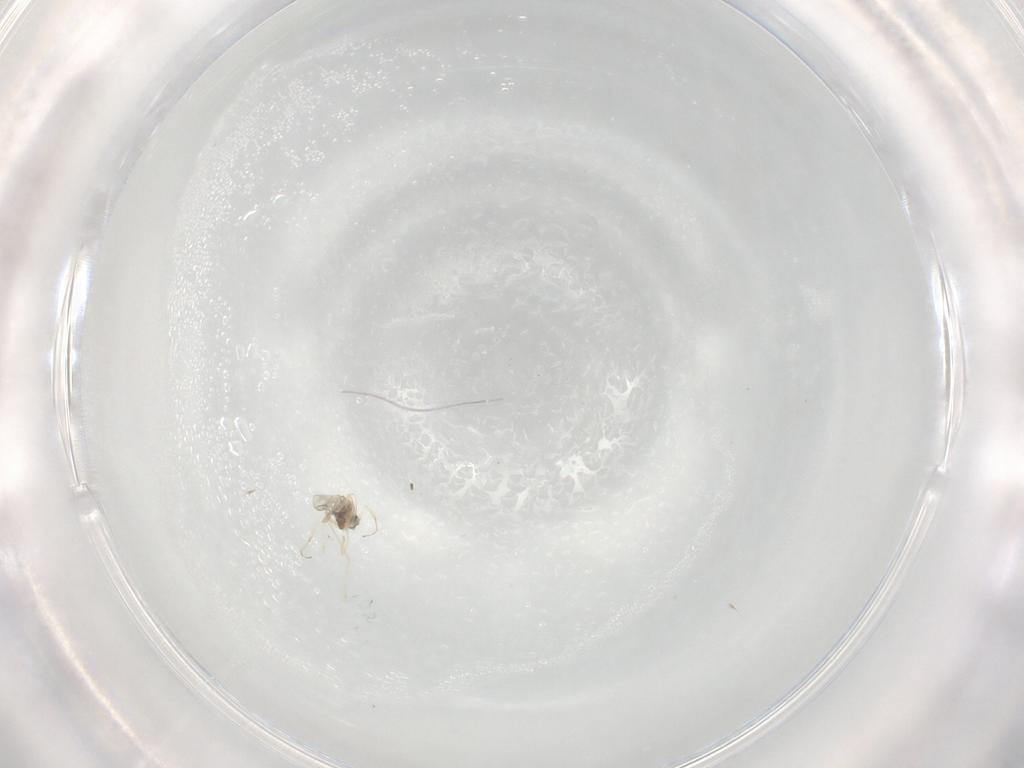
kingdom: Animalia
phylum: Arthropoda
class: Insecta
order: Diptera
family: Cecidomyiidae
